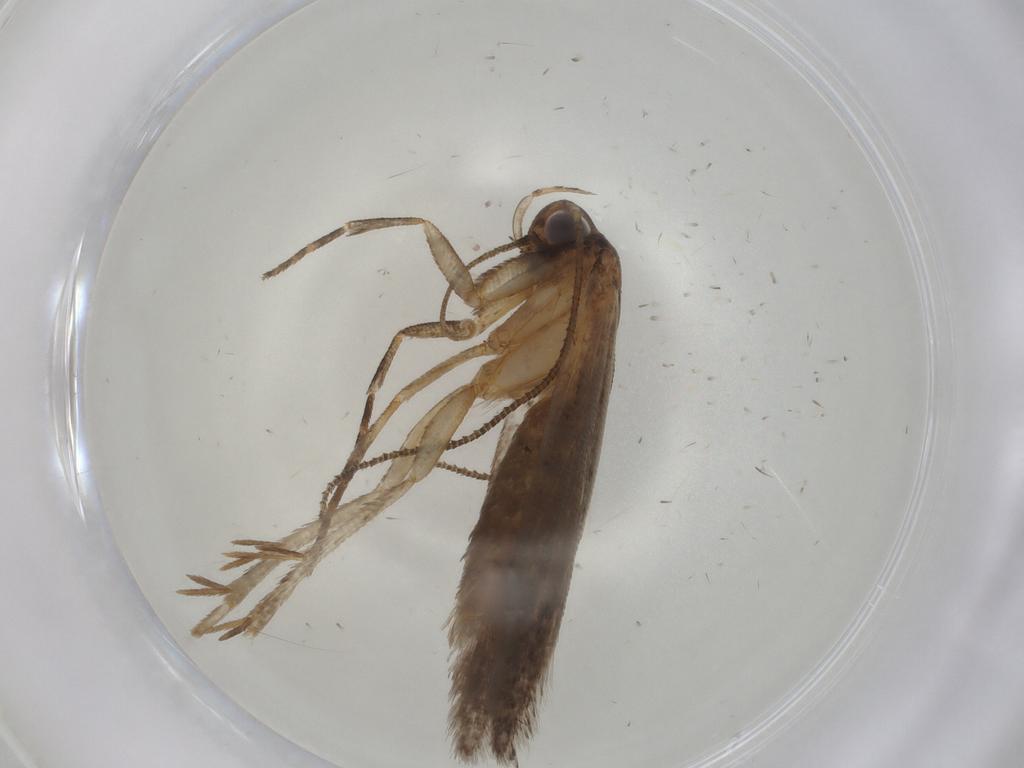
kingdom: Animalia
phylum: Arthropoda
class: Insecta
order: Lepidoptera
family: Gelechiidae
